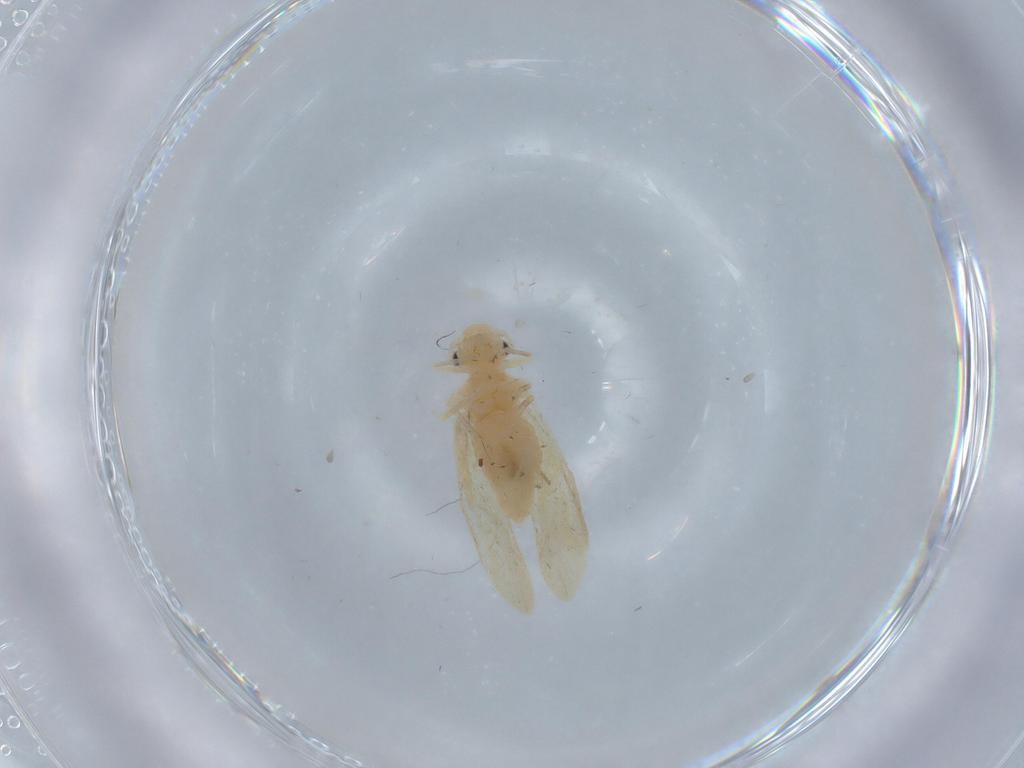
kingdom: Animalia
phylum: Arthropoda
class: Insecta
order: Psocodea
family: Caeciliusidae
